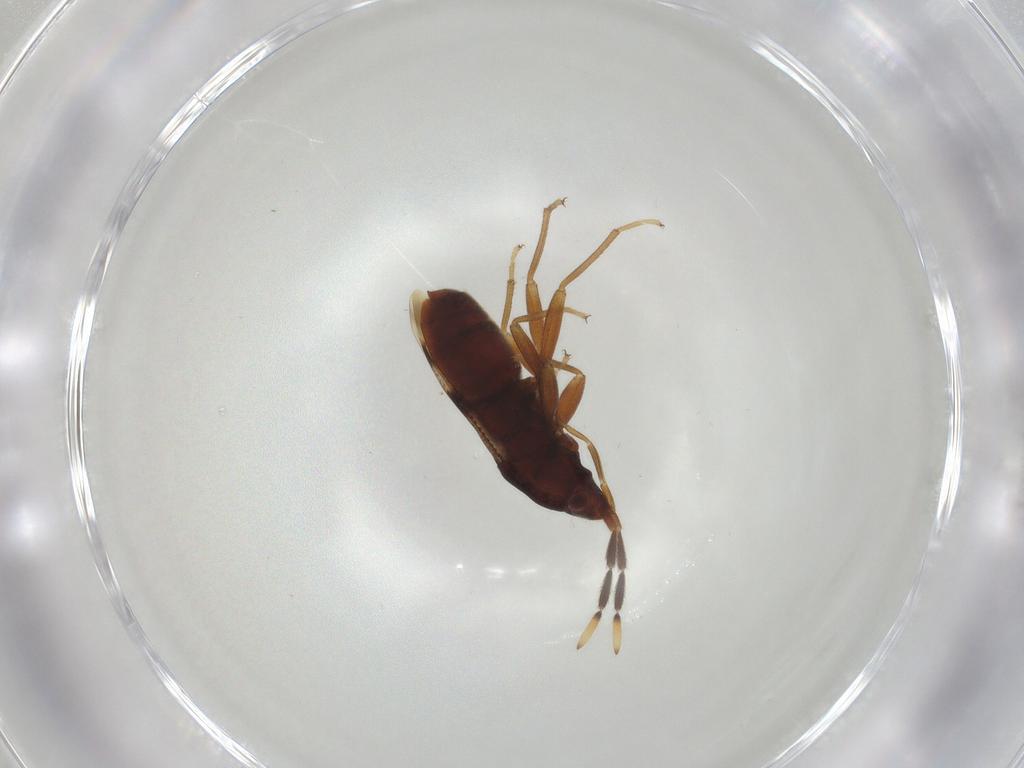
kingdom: Animalia
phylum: Arthropoda
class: Insecta
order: Hemiptera
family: Rhyparochromidae
